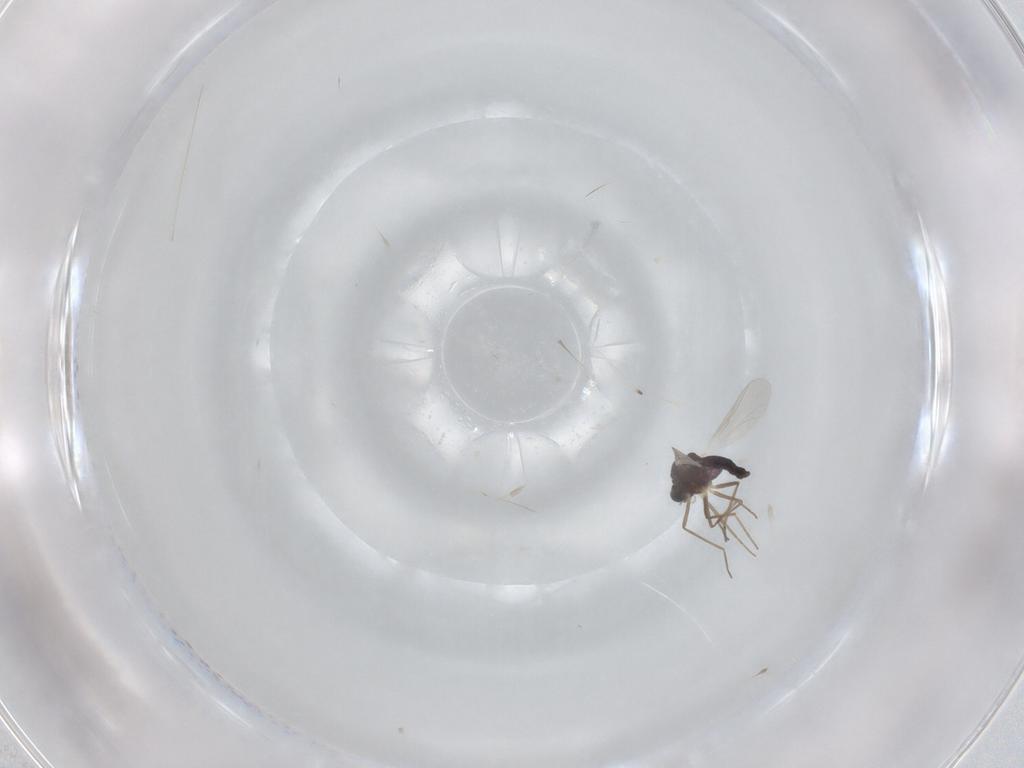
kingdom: Animalia
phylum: Arthropoda
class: Insecta
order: Diptera
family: Chironomidae
